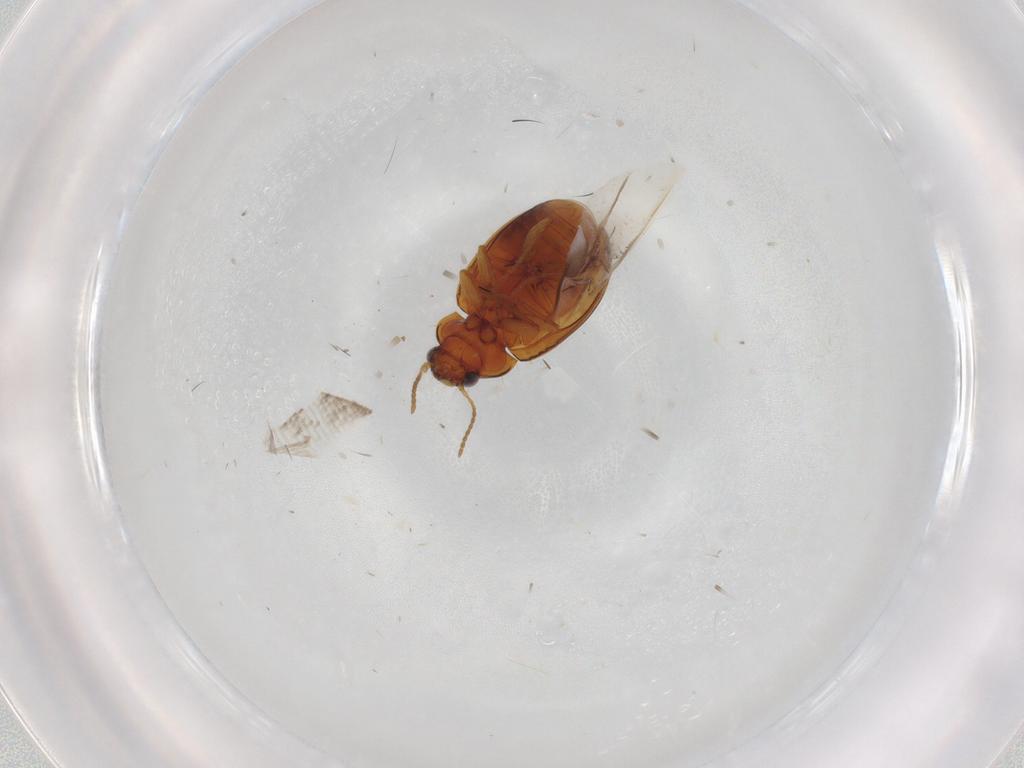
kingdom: Animalia
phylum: Arthropoda
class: Insecta
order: Coleoptera
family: Carabidae
